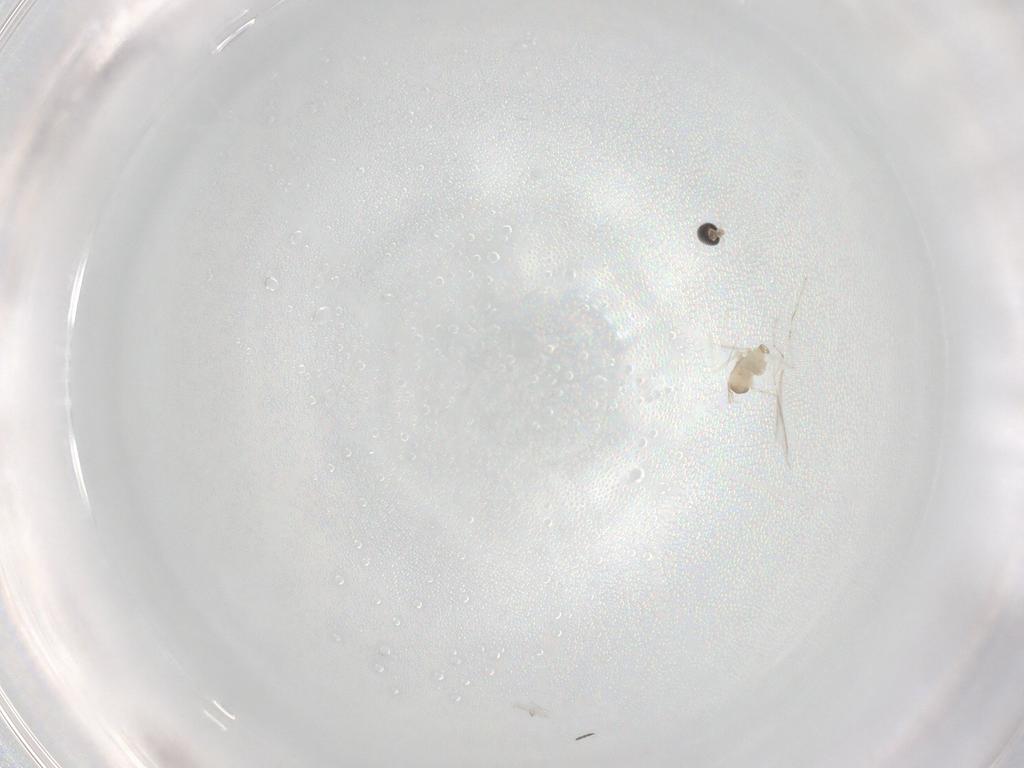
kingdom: Animalia
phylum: Arthropoda
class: Insecta
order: Diptera
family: Cecidomyiidae
